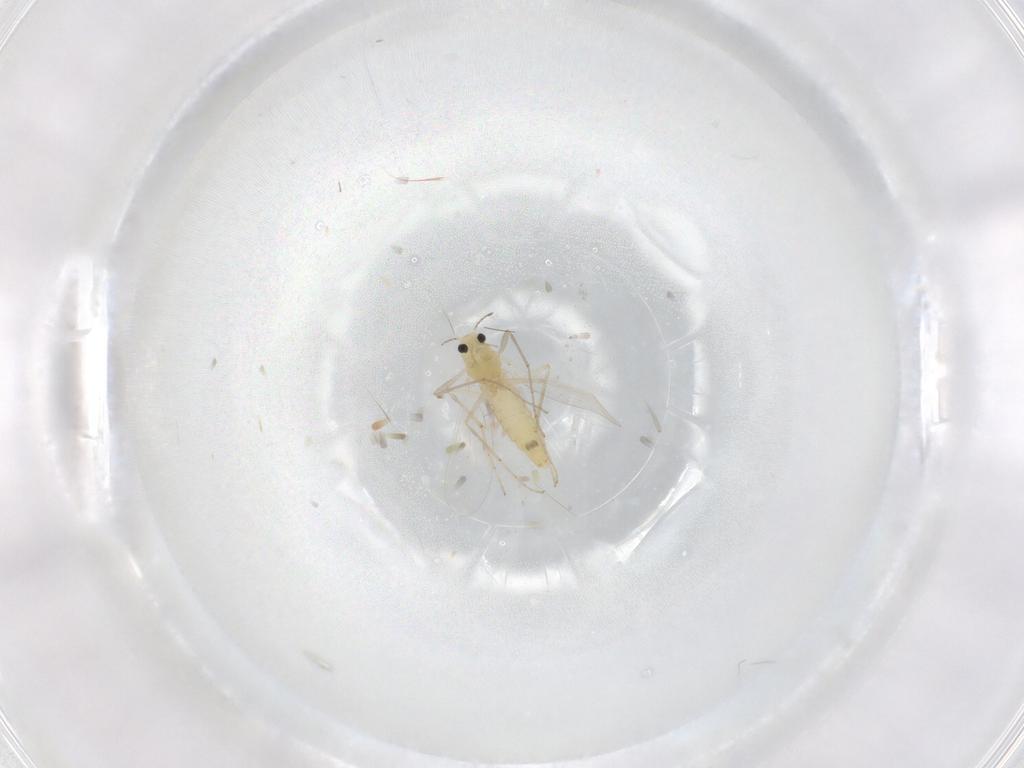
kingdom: Animalia
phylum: Arthropoda
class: Insecta
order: Diptera
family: Chironomidae
